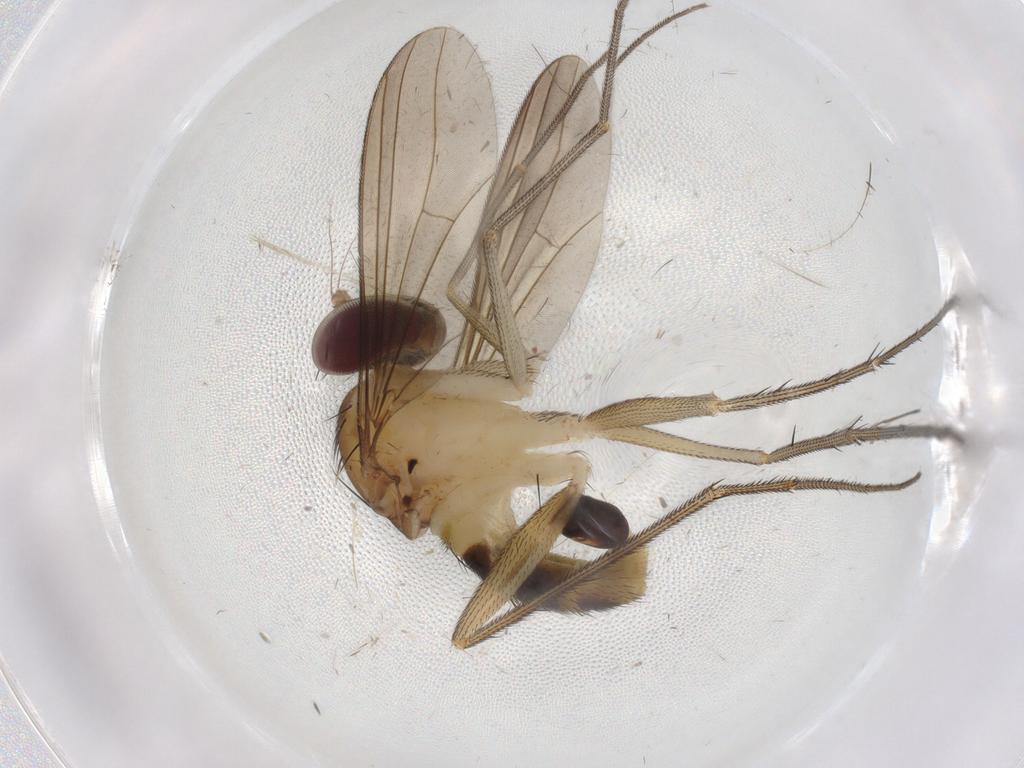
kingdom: Animalia
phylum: Arthropoda
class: Insecta
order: Diptera
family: Dolichopodidae
